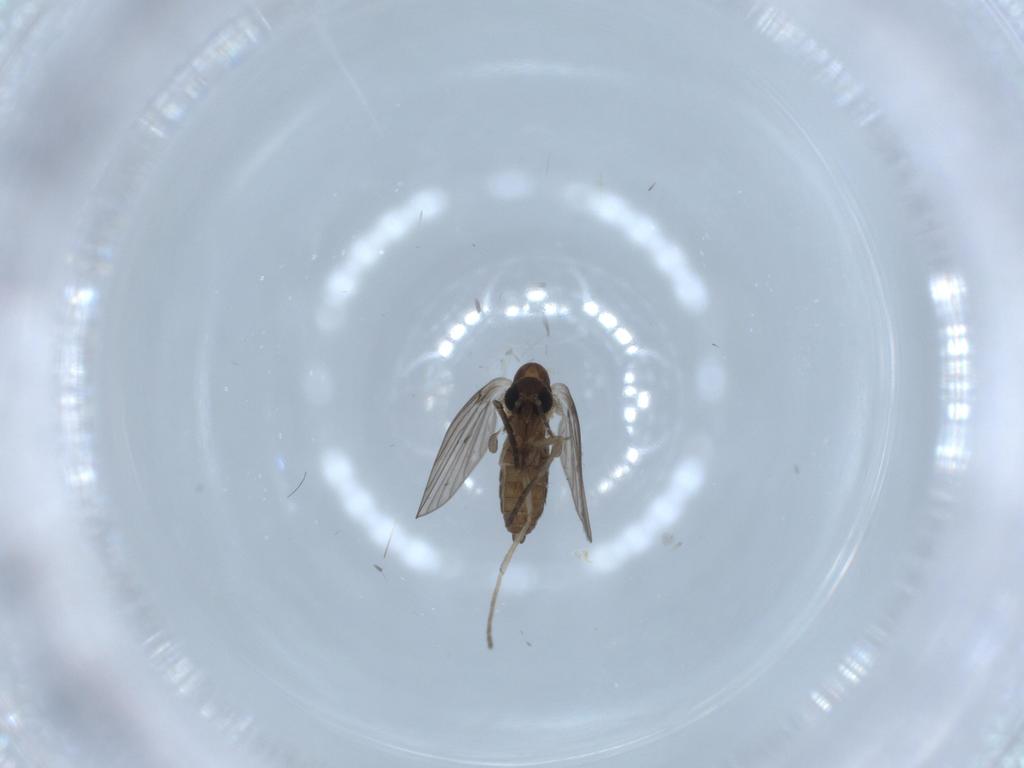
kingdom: Animalia
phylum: Arthropoda
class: Insecta
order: Diptera
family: Psychodidae
